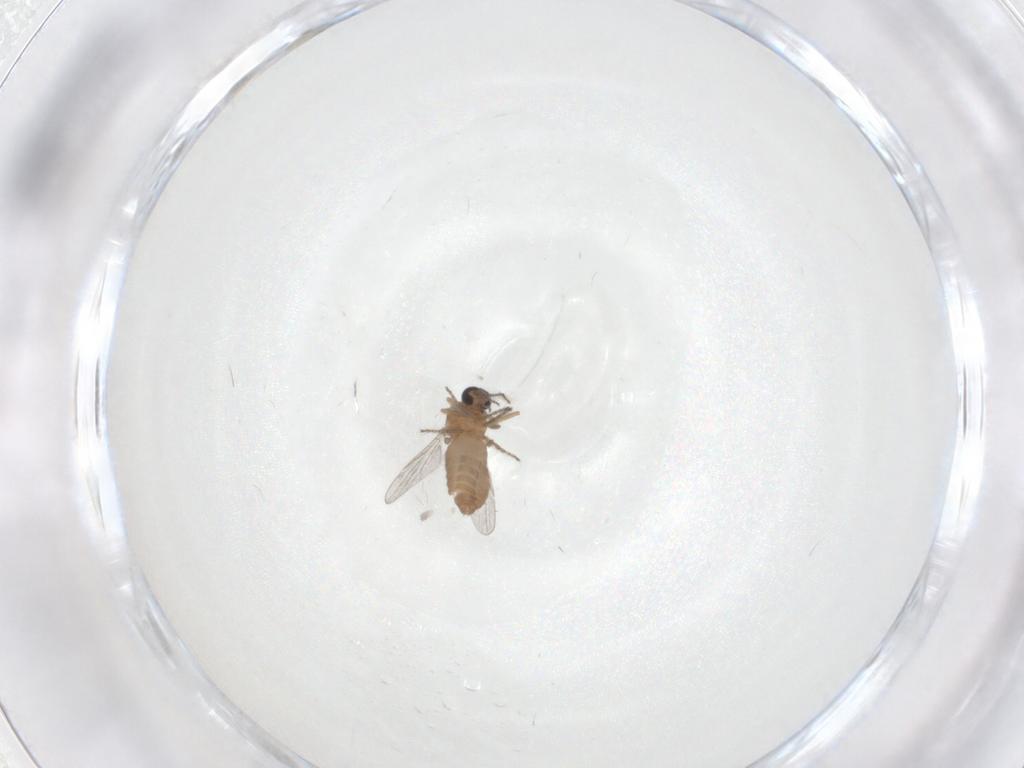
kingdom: Animalia
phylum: Arthropoda
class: Insecta
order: Diptera
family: Ceratopogonidae
